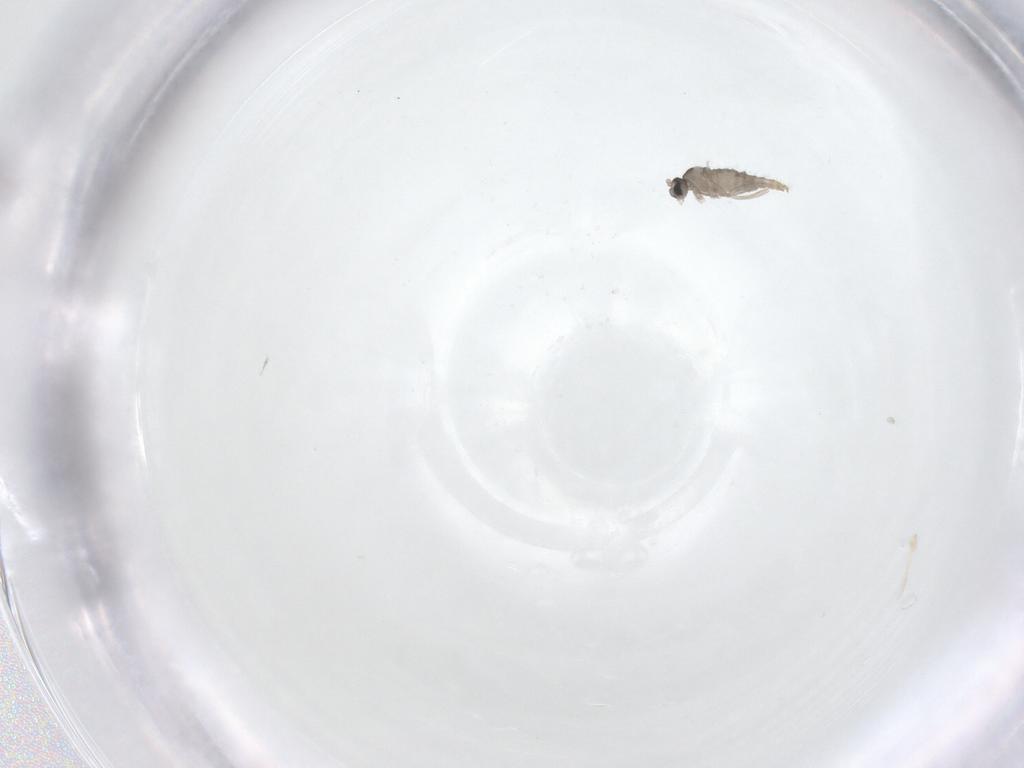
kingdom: Animalia
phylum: Arthropoda
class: Insecta
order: Diptera
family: Cecidomyiidae
